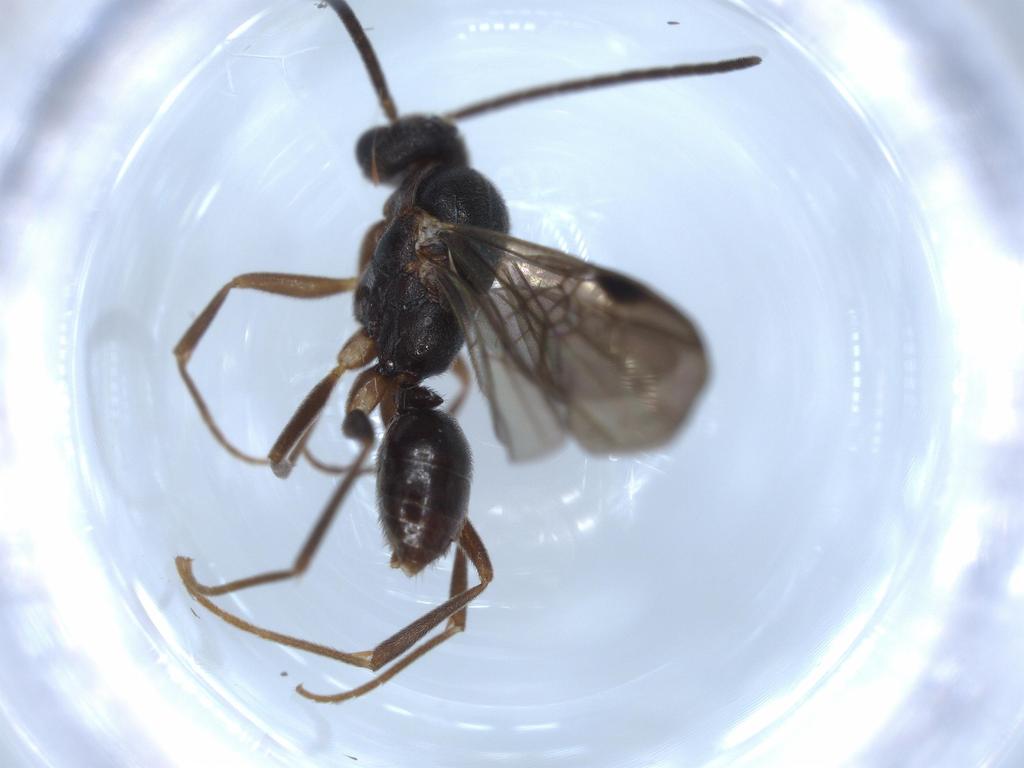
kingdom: Animalia
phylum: Arthropoda
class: Insecta
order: Hymenoptera
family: Formicidae
